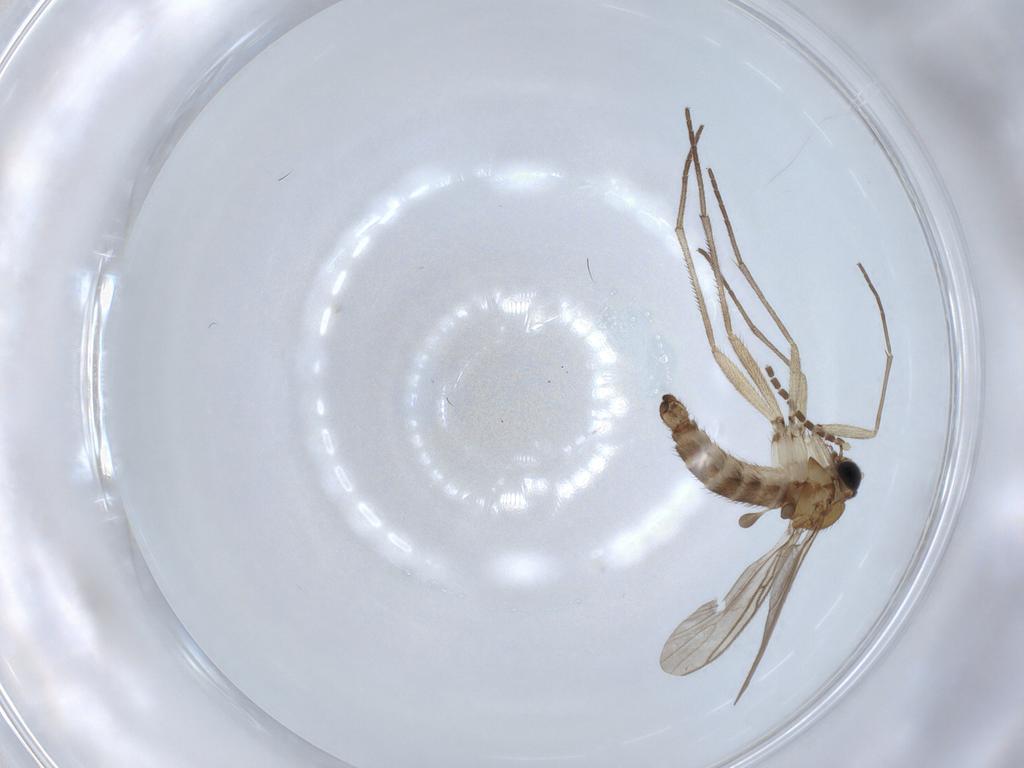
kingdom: Animalia
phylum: Arthropoda
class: Insecta
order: Diptera
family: Sciaridae
